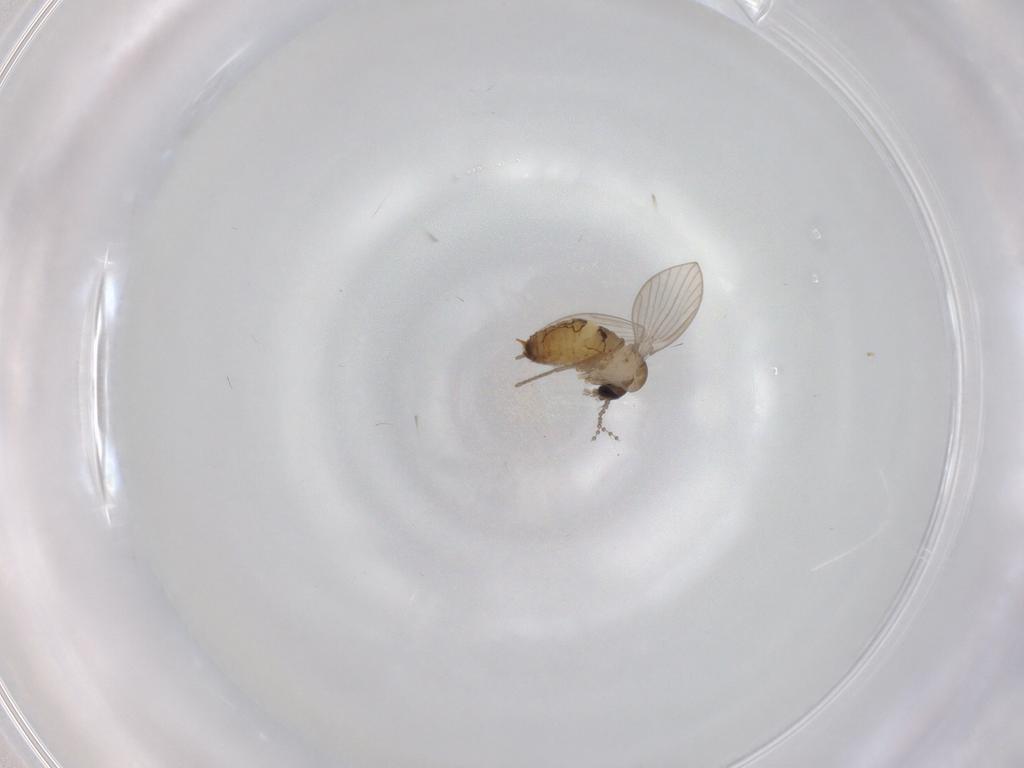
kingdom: Animalia
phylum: Arthropoda
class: Insecta
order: Diptera
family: Psychodidae
